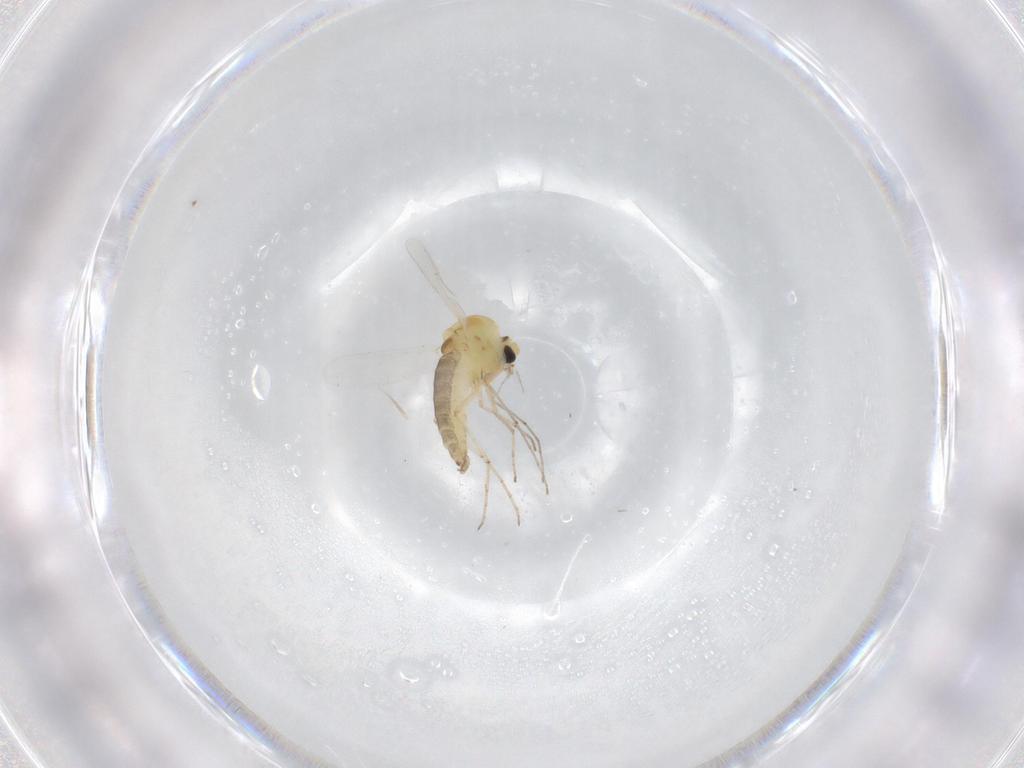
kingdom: Animalia
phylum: Arthropoda
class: Insecta
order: Diptera
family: Chironomidae
